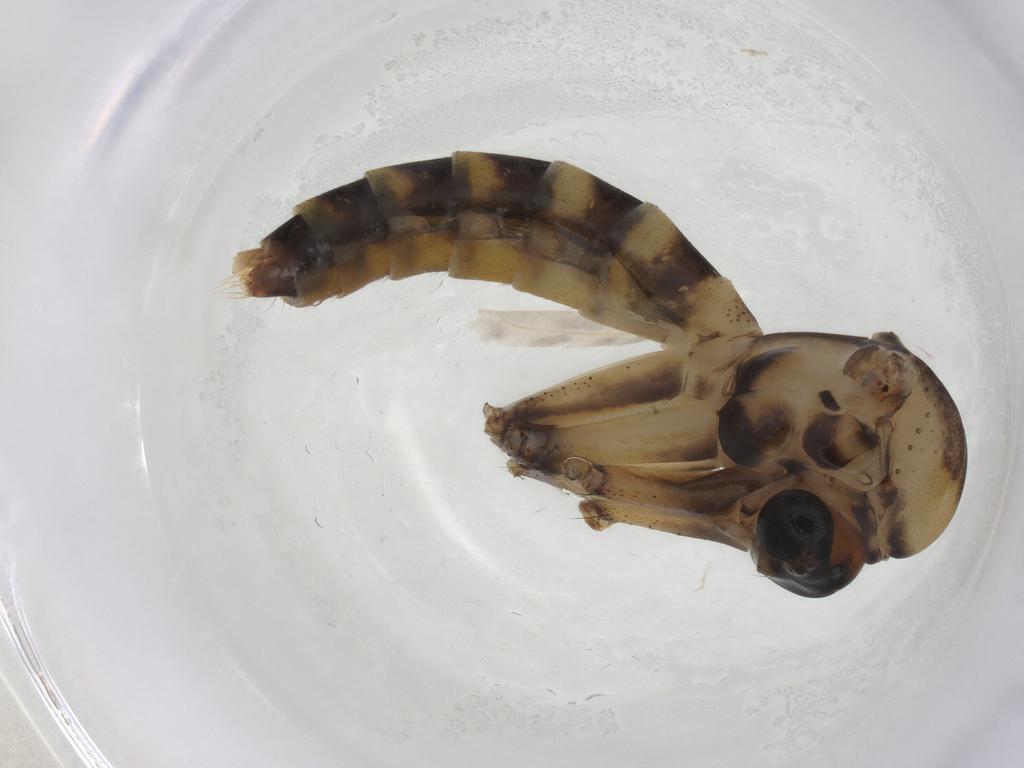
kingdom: Animalia
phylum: Arthropoda
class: Insecta
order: Diptera
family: Ditomyiidae
